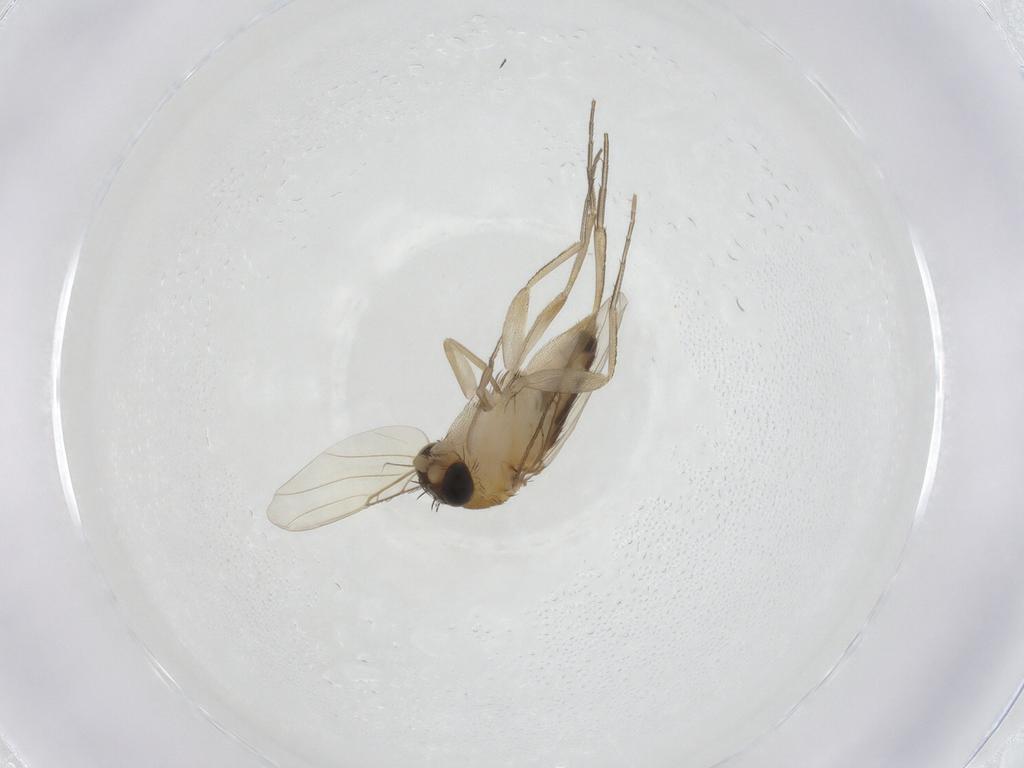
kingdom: Animalia
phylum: Arthropoda
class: Insecta
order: Diptera
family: Phoridae
